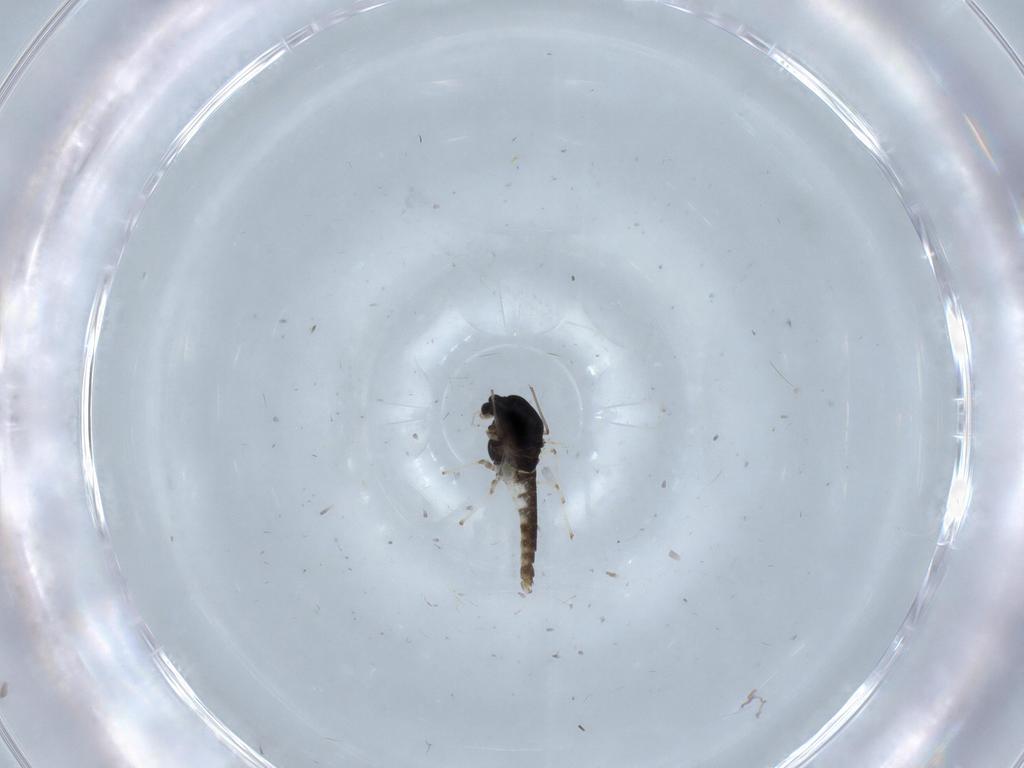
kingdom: Animalia
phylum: Arthropoda
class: Insecta
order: Diptera
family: Chironomidae
